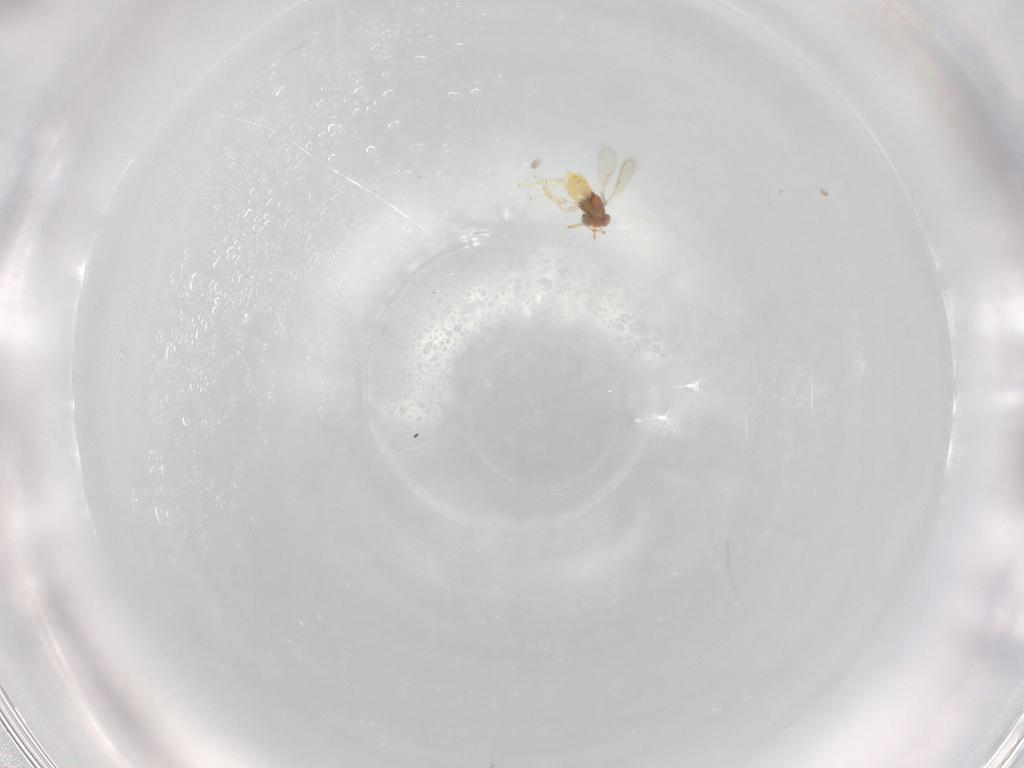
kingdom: Animalia
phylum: Arthropoda
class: Insecta
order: Hymenoptera
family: Aphelinidae
